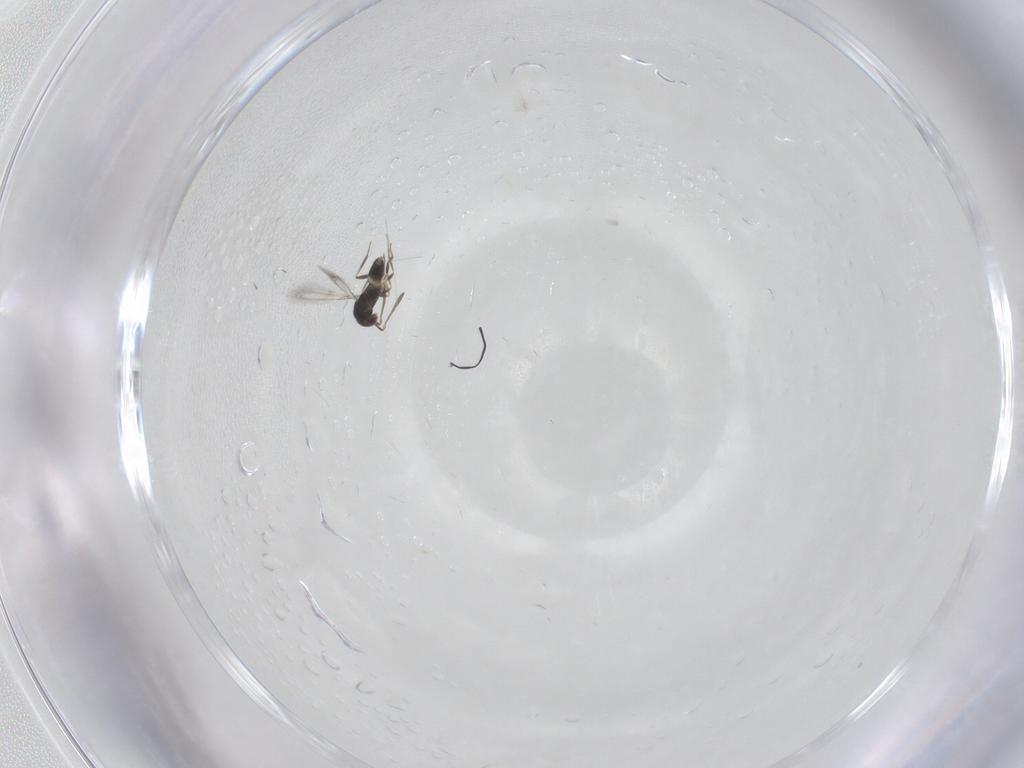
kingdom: Animalia
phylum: Arthropoda
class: Insecta
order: Hymenoptera
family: Mymaridae
